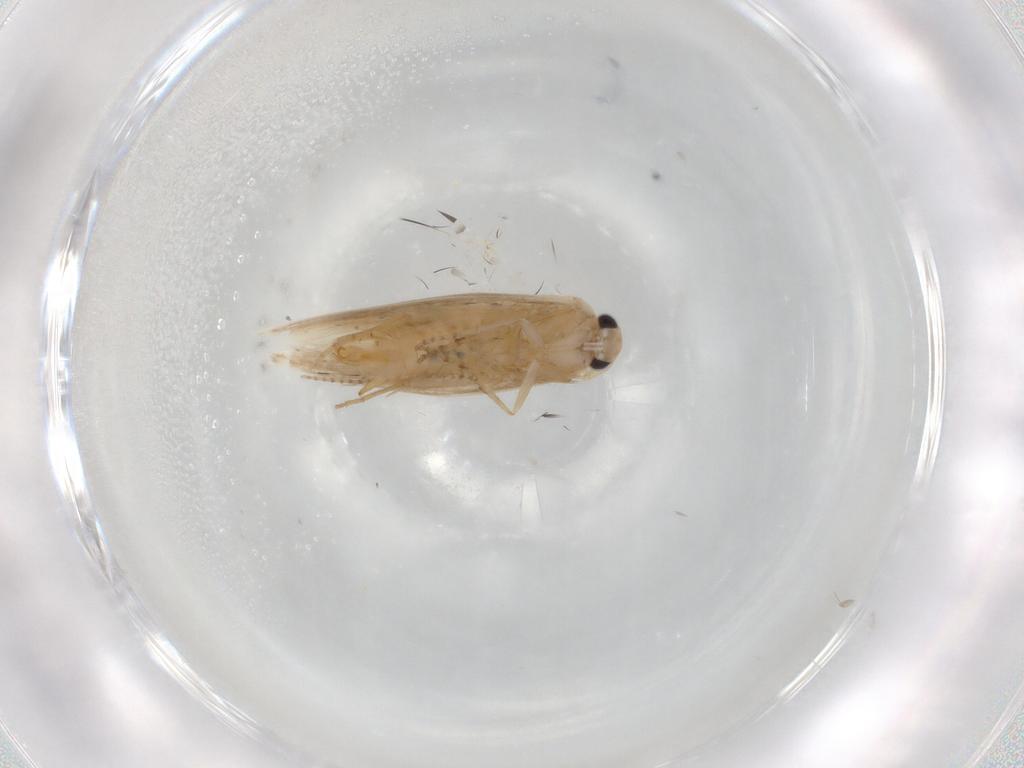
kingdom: Animalia
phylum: Arthropoda
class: Insecta
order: Lepidoptera
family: Bucculatricidae
